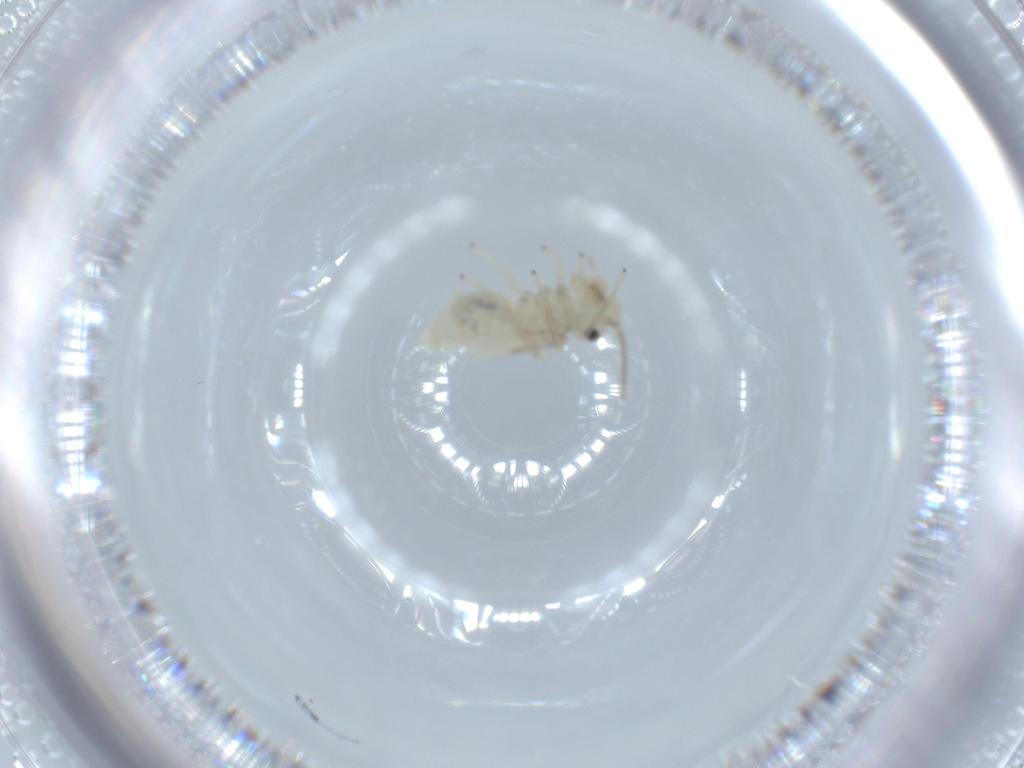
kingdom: Animalia
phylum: Arthropoda
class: Insecta
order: Psocodea
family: Caeciliusidae
